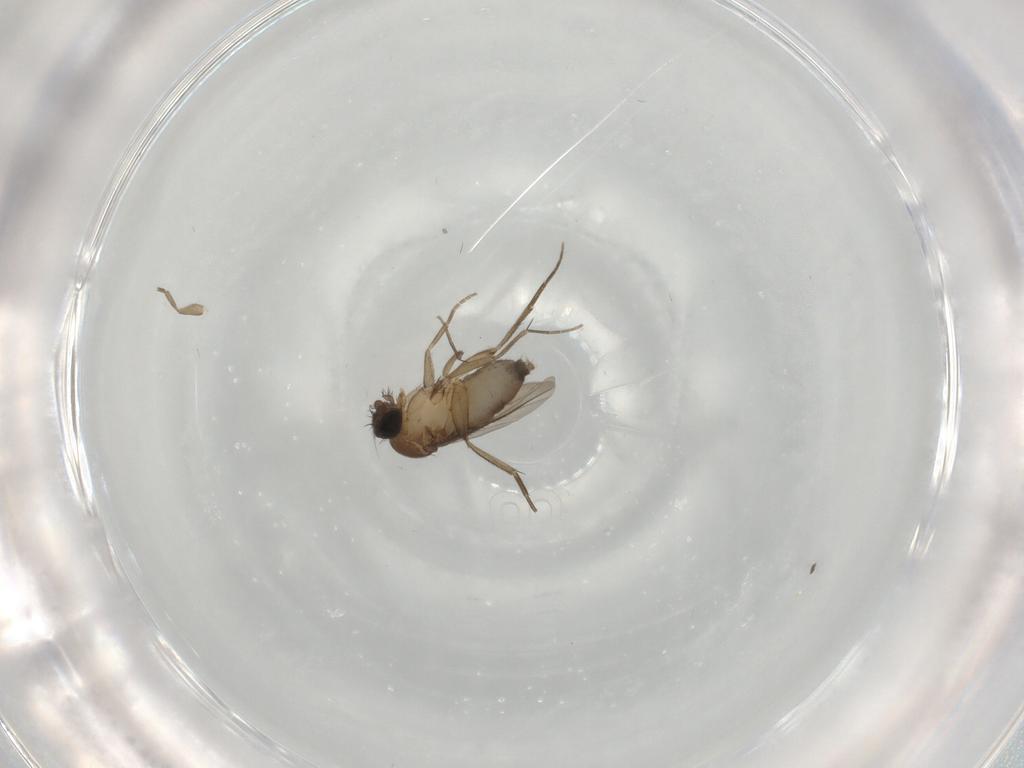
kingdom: Animalia
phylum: Arthropoda
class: Insecta
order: Diptera
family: Phoridae
